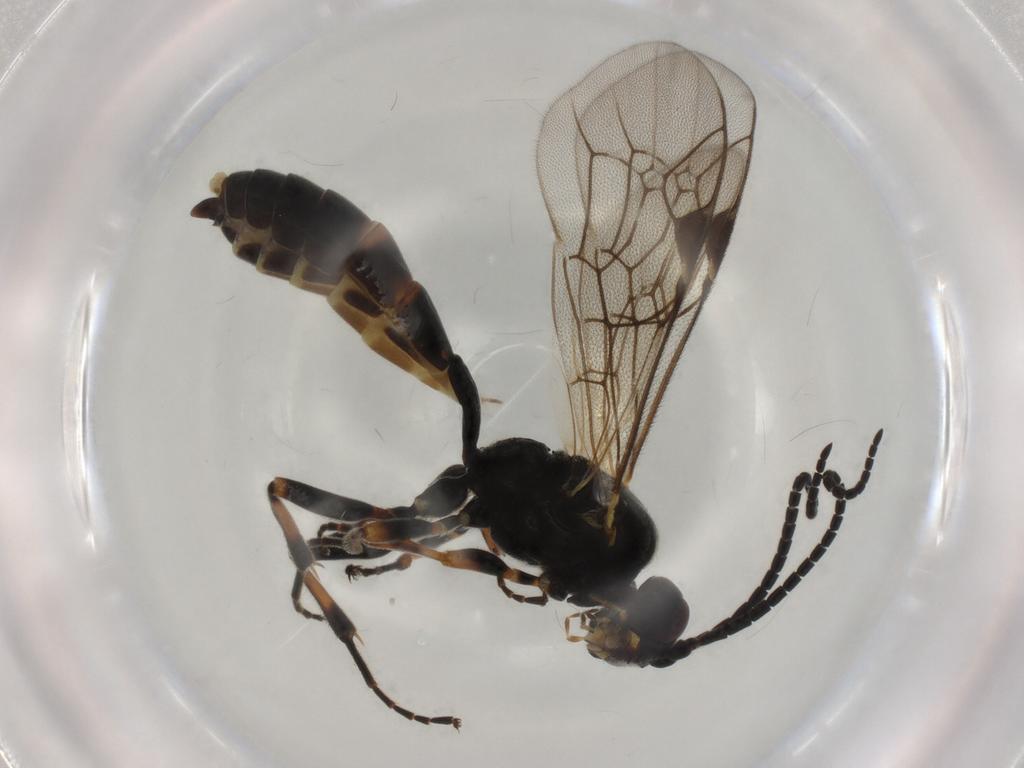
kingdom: Animalia
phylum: Arthropoda
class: Insecta
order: Hymenoptera
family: Ichneumonidae
